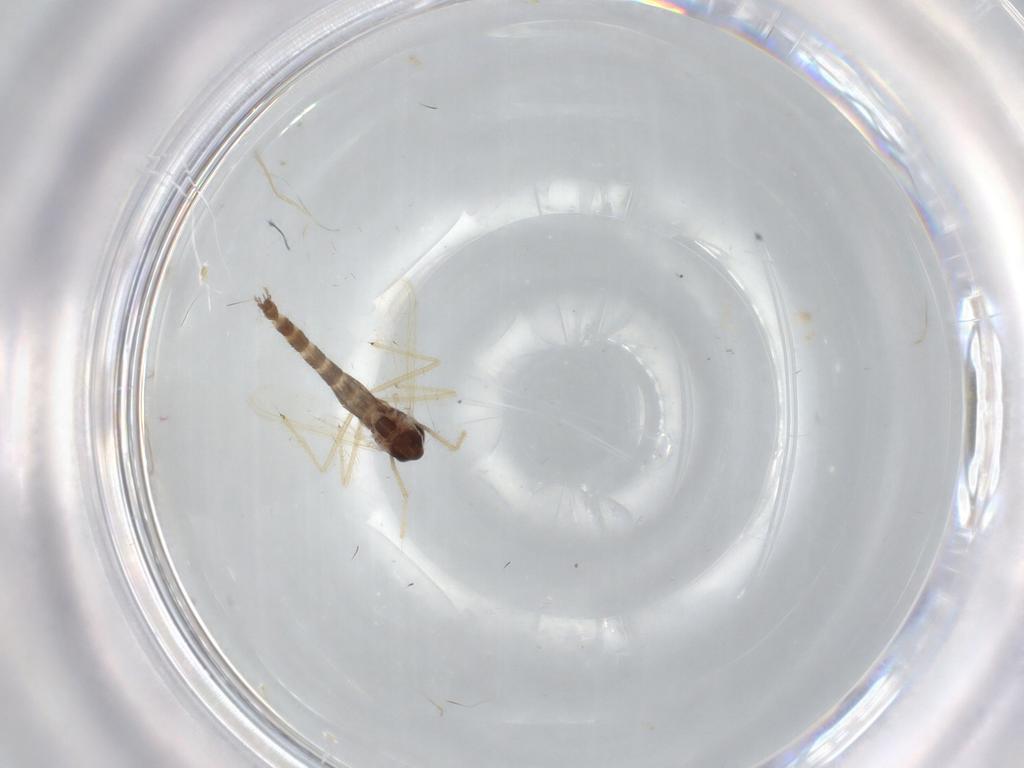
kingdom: Animalia
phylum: Arthropoda
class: Insecta
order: Diptera
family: Chironomidae
